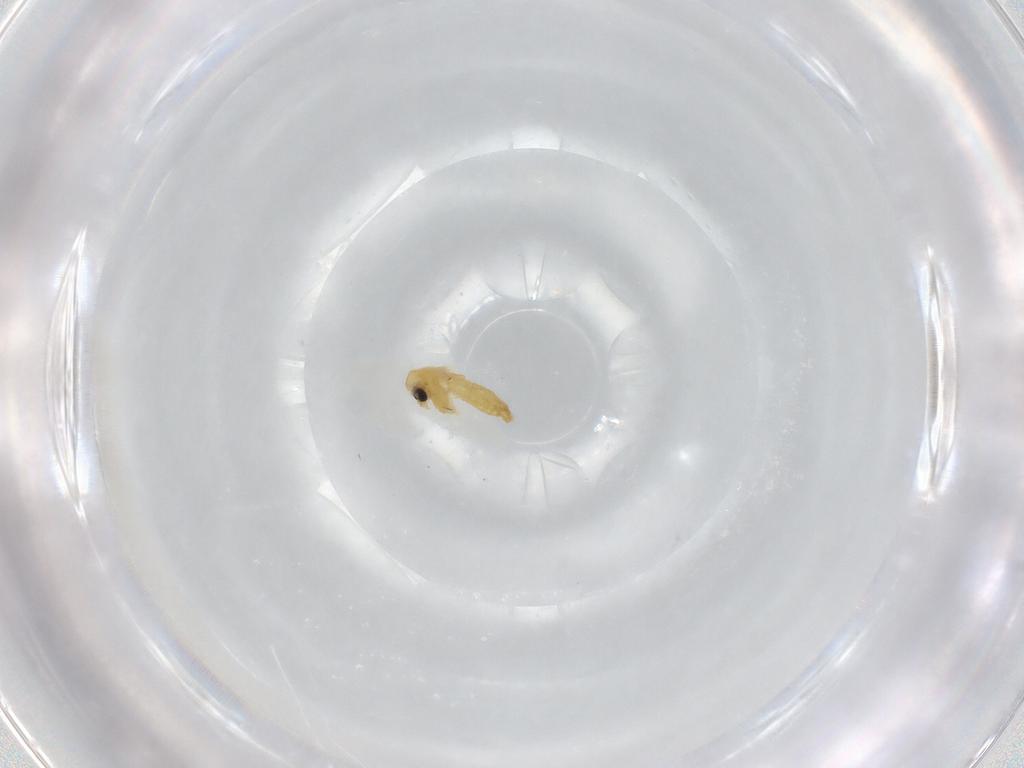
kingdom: Animalia
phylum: Arthropoda
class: Insecta
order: Diptera
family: Chironomidae
